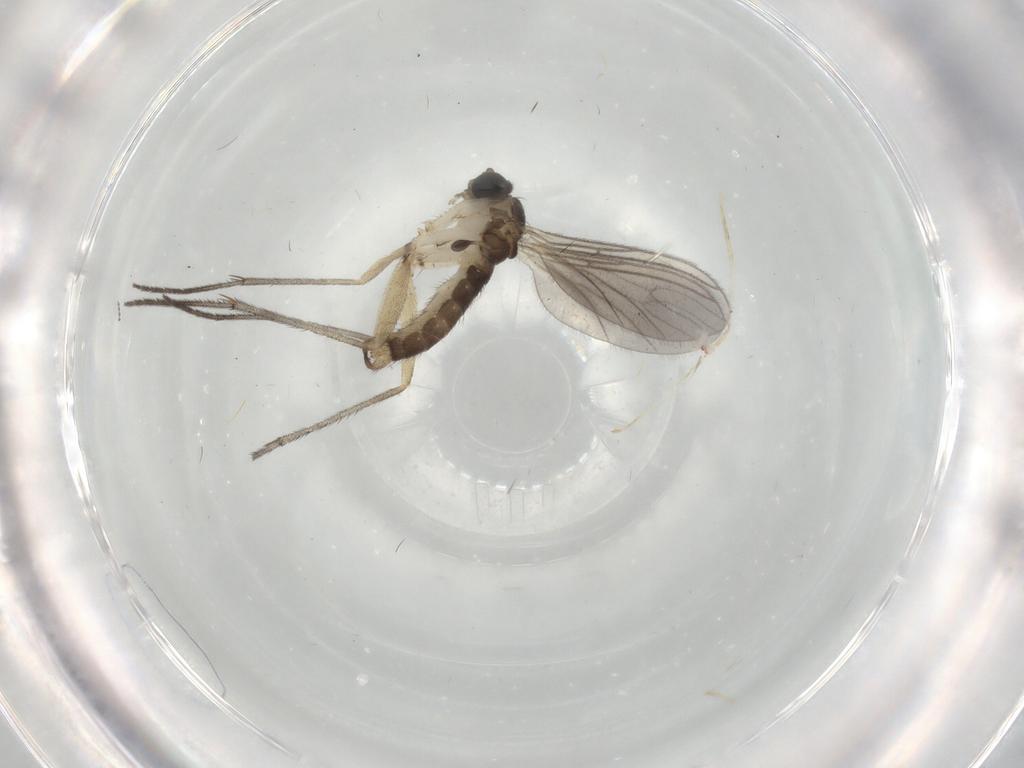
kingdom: Animalia
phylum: Arthropoda
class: Insecta
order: Diptera
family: Sciaridae
